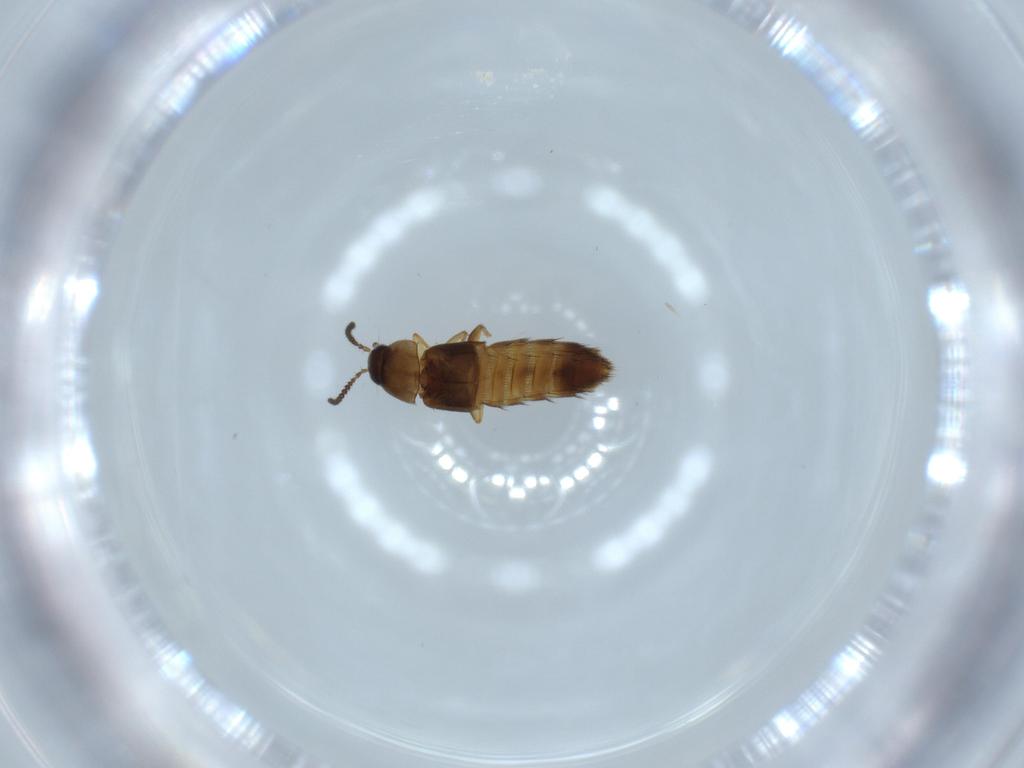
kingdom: Animalia
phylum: Arthropoda
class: Insecta
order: Coleoptera
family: Staphylinidae
